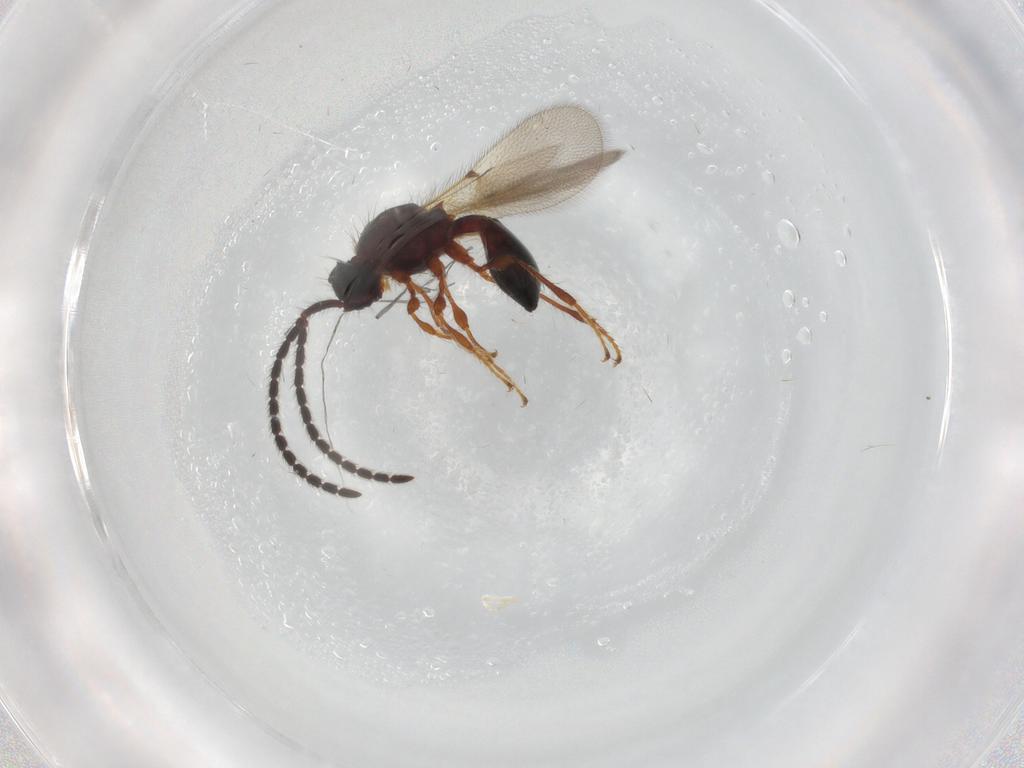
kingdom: Animalia
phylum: Arthropoda
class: Insecta
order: Hymenoptera
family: Diapriidae
